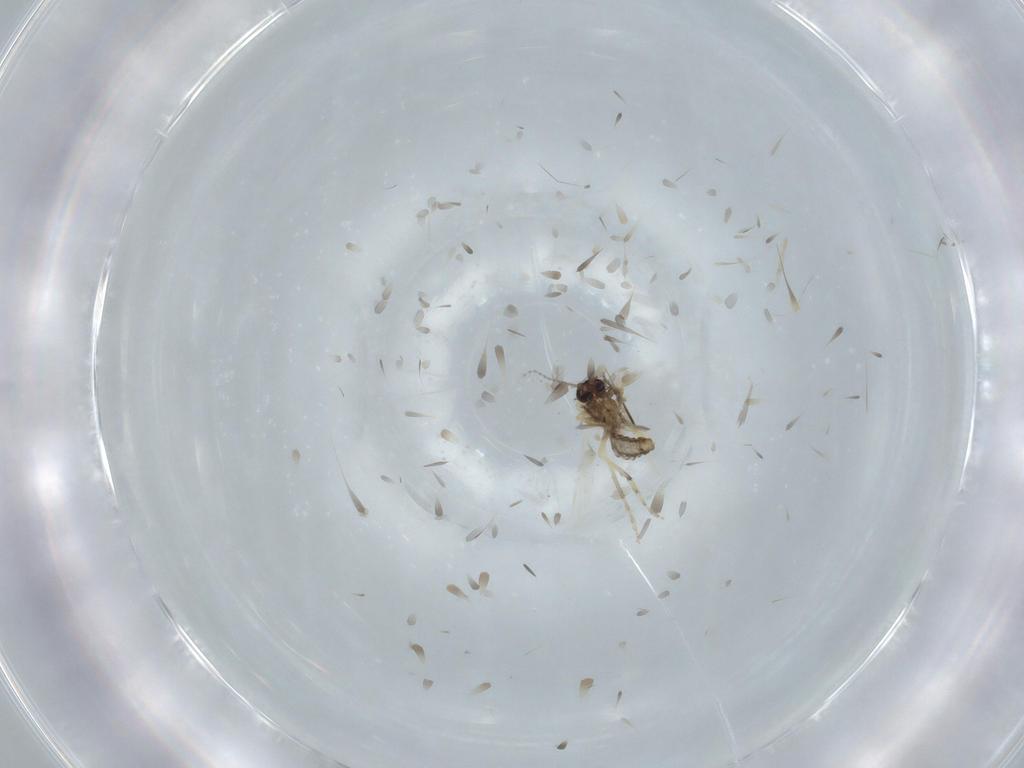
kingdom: Animalia
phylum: Arthropoda
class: Insecta
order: Diptera
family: Ceratopogonidae
